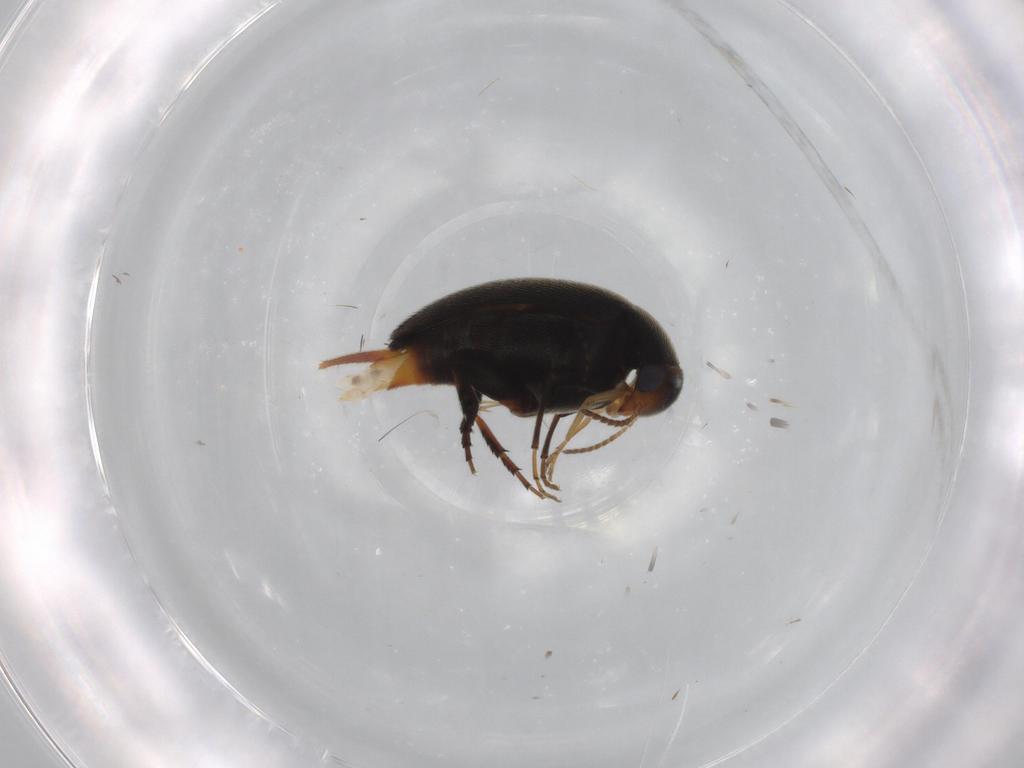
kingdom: Animalia
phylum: Arthropoda
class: Insecta
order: Coleoptera
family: Mordellidae
